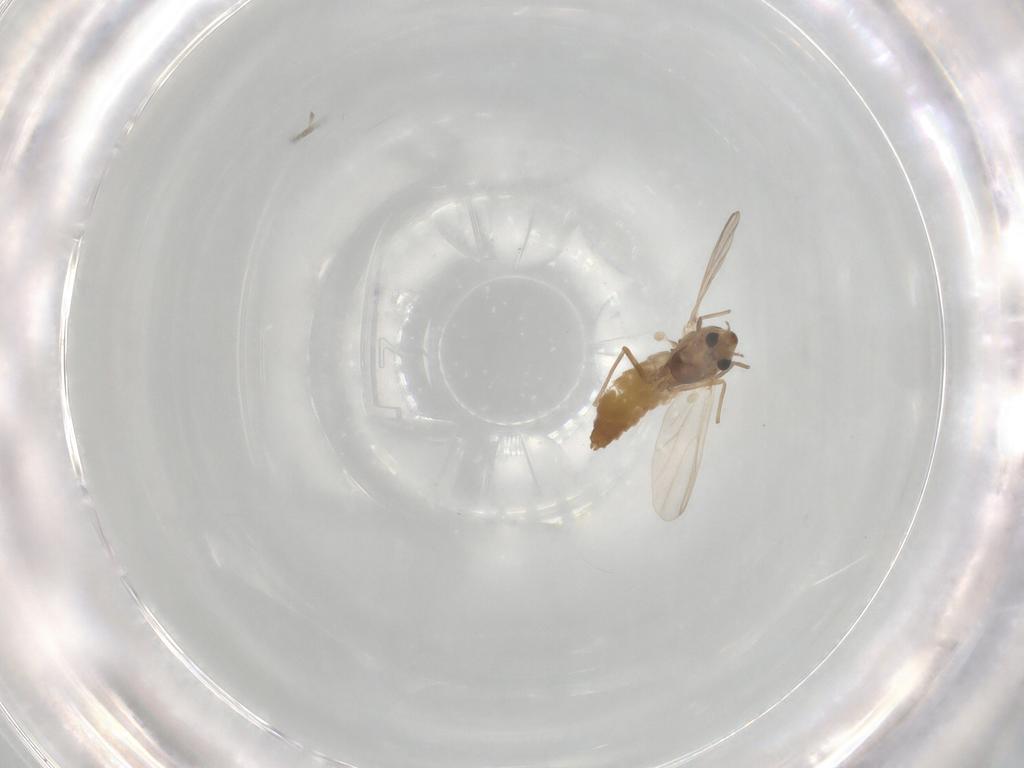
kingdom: Animalia
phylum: Arthropoda
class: Insecta
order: Diptera
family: Chironomidae
